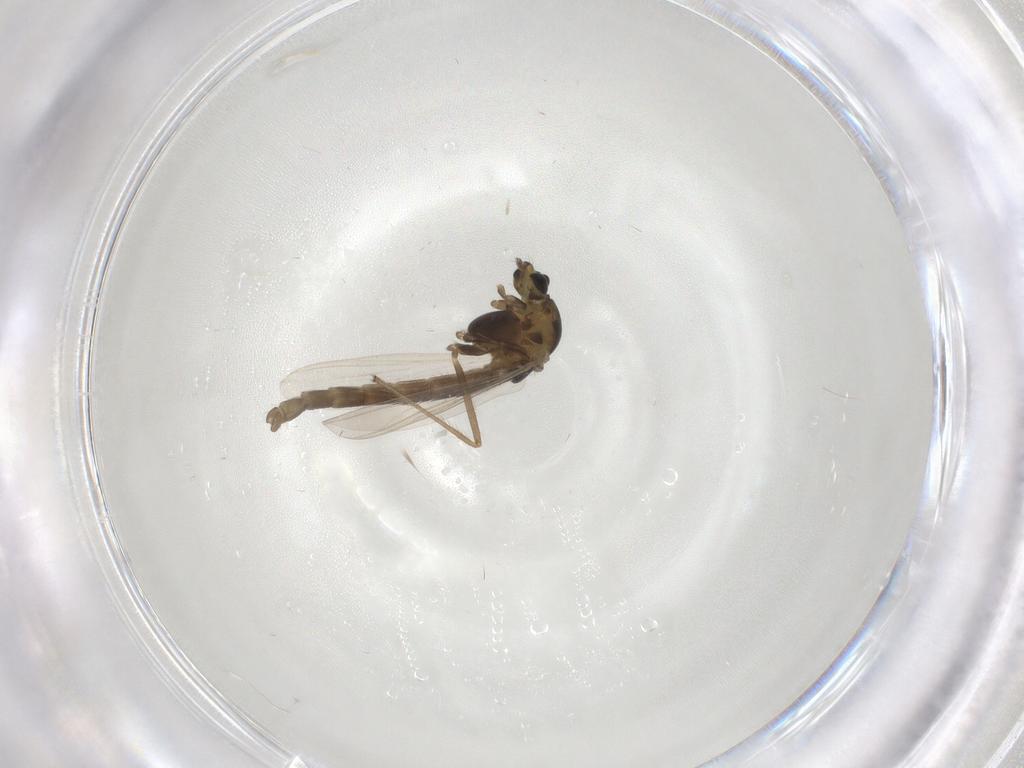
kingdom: Animalia
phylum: Arthropoda
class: Insecta
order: Diptera
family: Chironomidae
